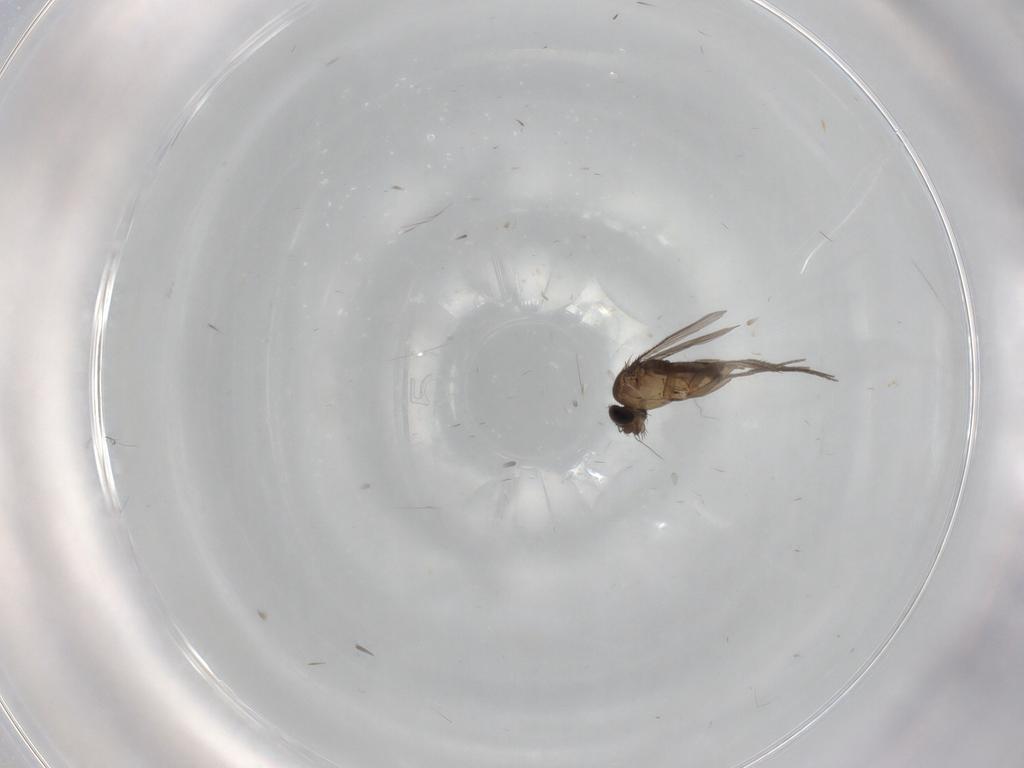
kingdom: Animalia
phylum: Arthropoda
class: Insecta
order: Diptera
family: Phoridae
